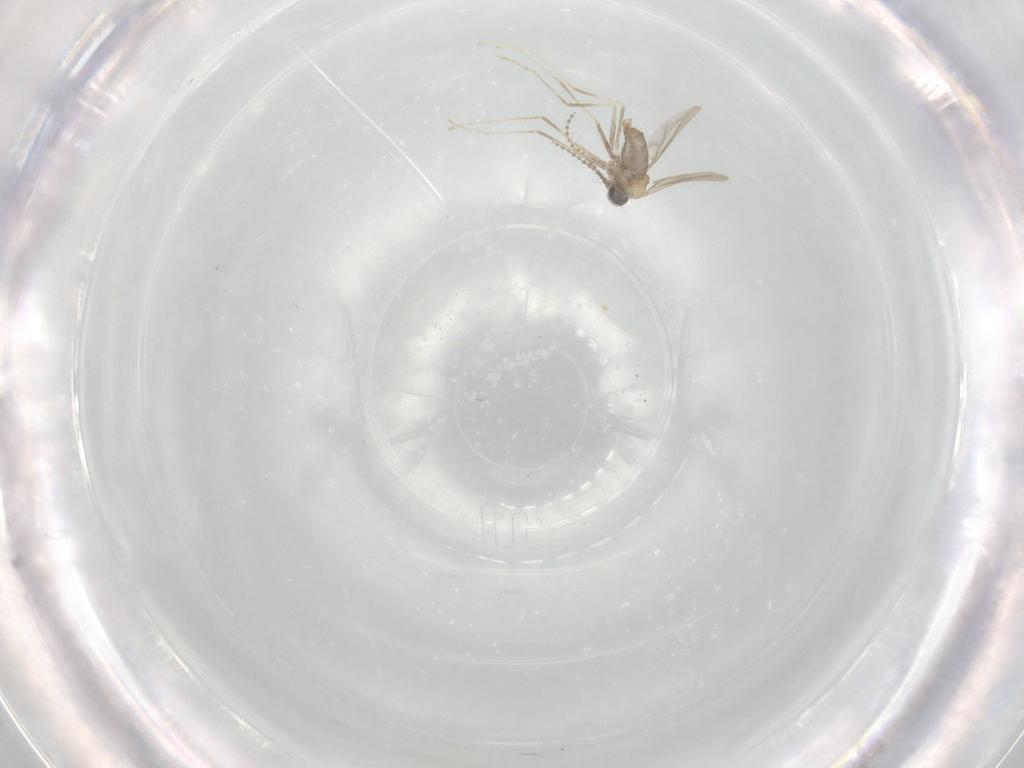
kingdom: Animalia
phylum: Arthropoda
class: Insecta
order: Diptera
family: Cecidomyiidae
